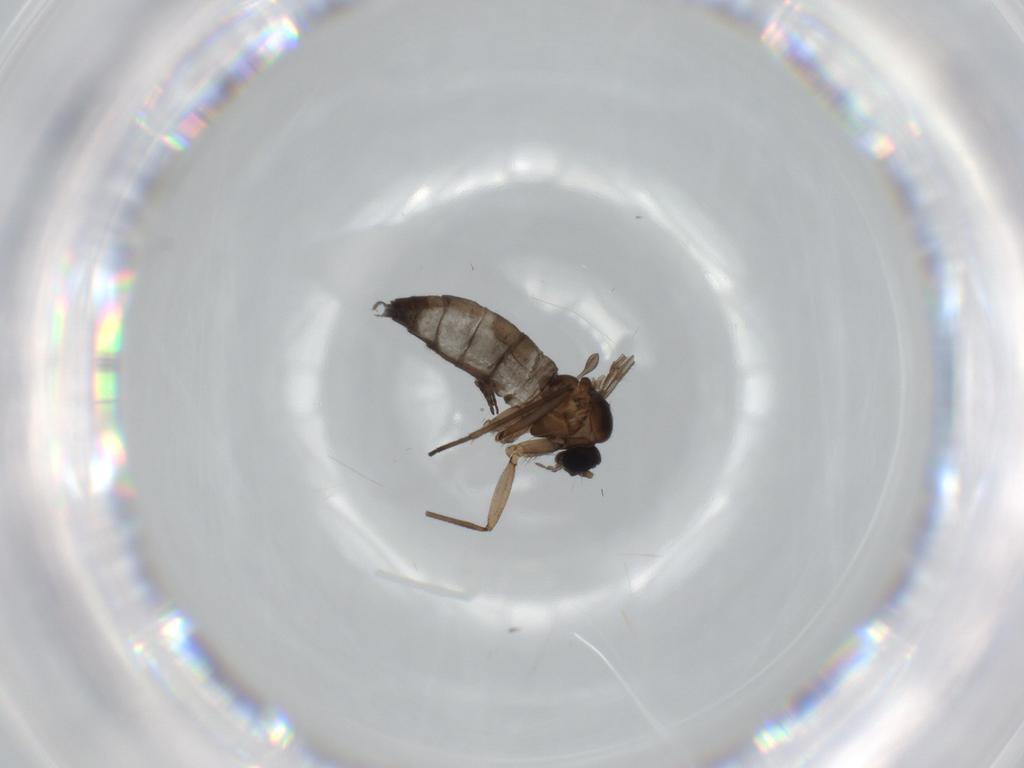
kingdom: Animalia
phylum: Arthropoda
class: Insecta
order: Diptera
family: Sciaridae
